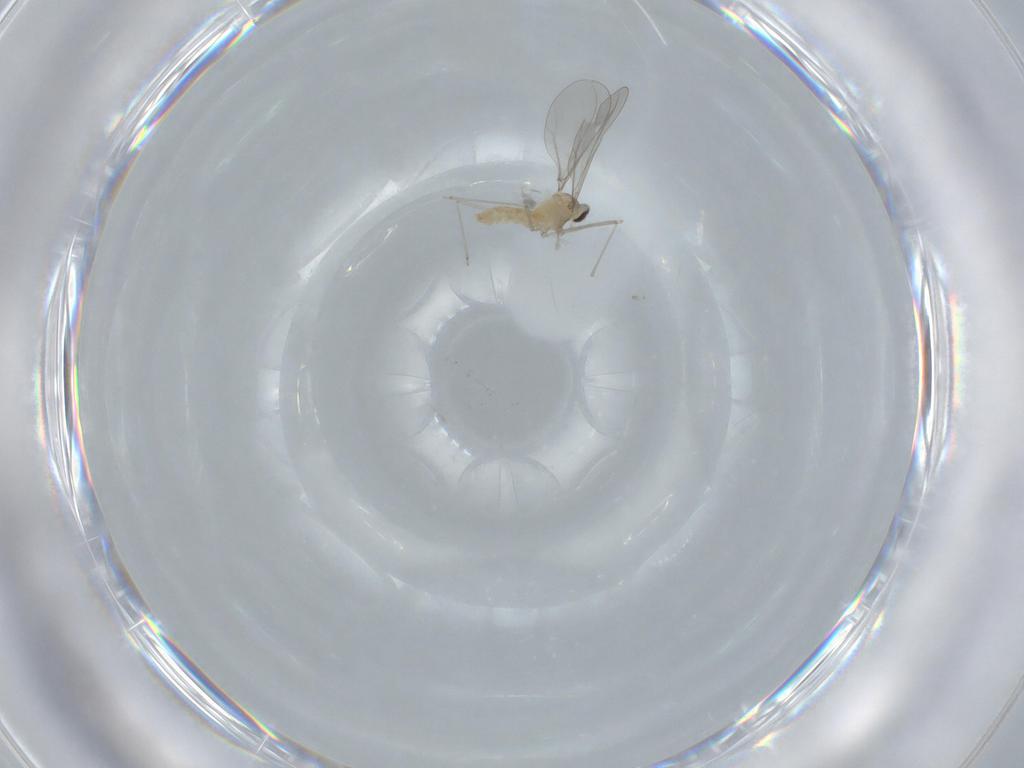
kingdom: Animalia
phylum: Arthropoda
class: Insecta
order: Diptera
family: Cecidomyiidae
